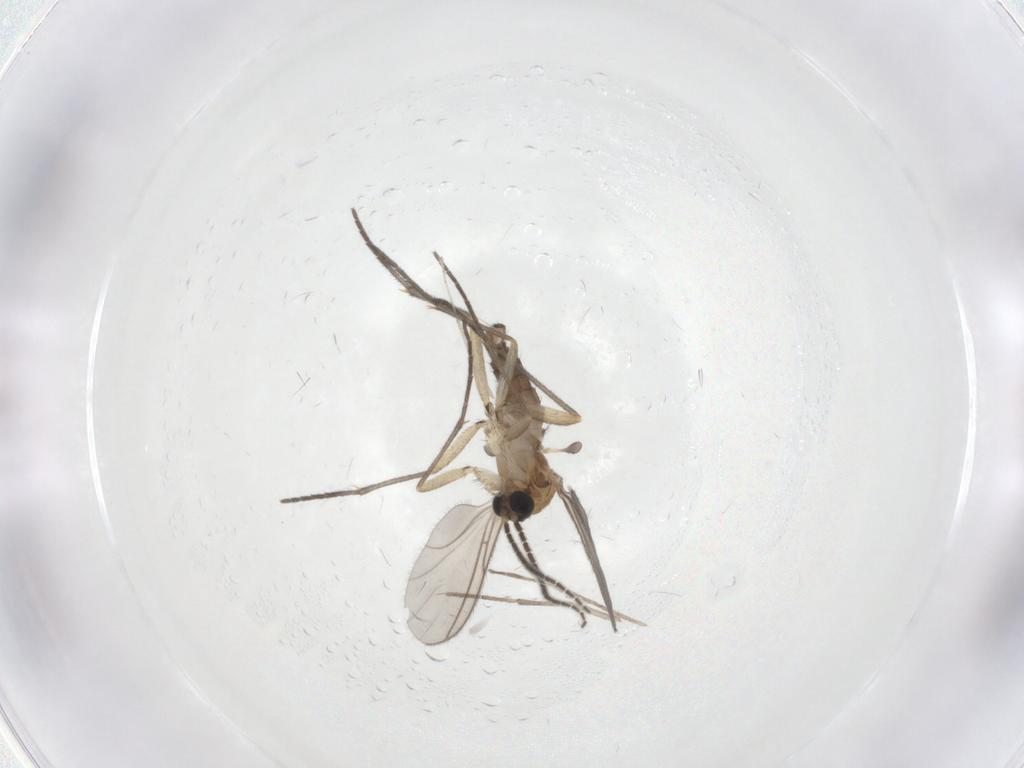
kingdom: Animalia
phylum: Arthropoda
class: Insecta
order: Diptera
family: Sciaridae
